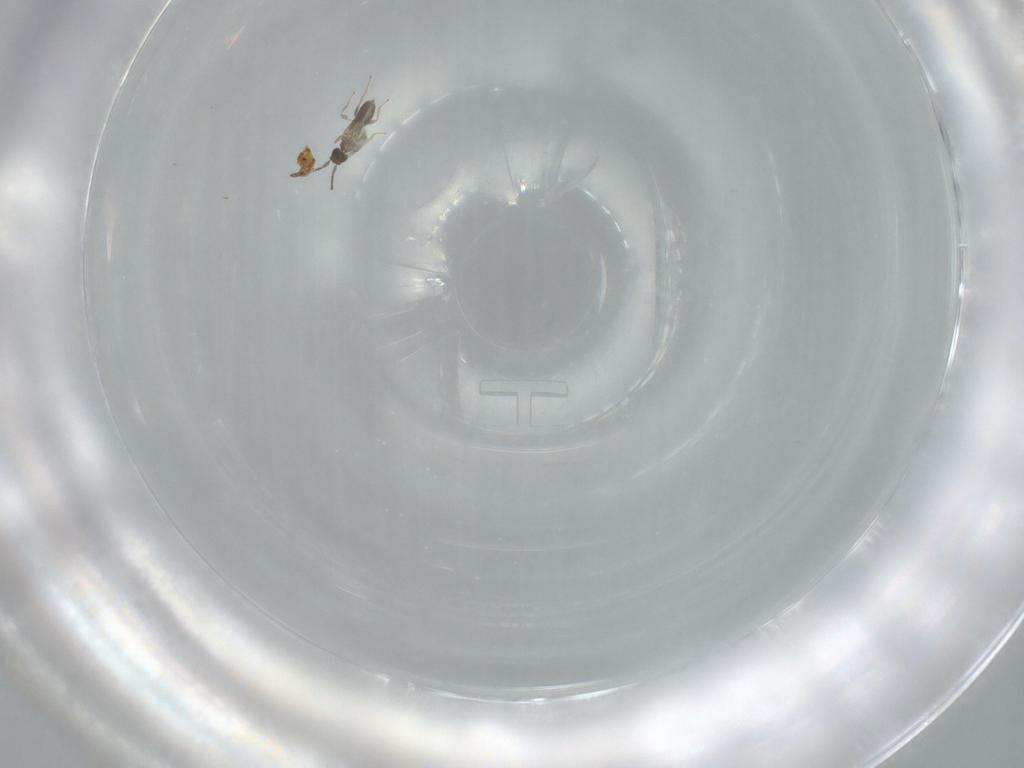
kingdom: Animalia
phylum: Arthropoda
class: Insecta
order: Hymenoptera
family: Mymaridae
